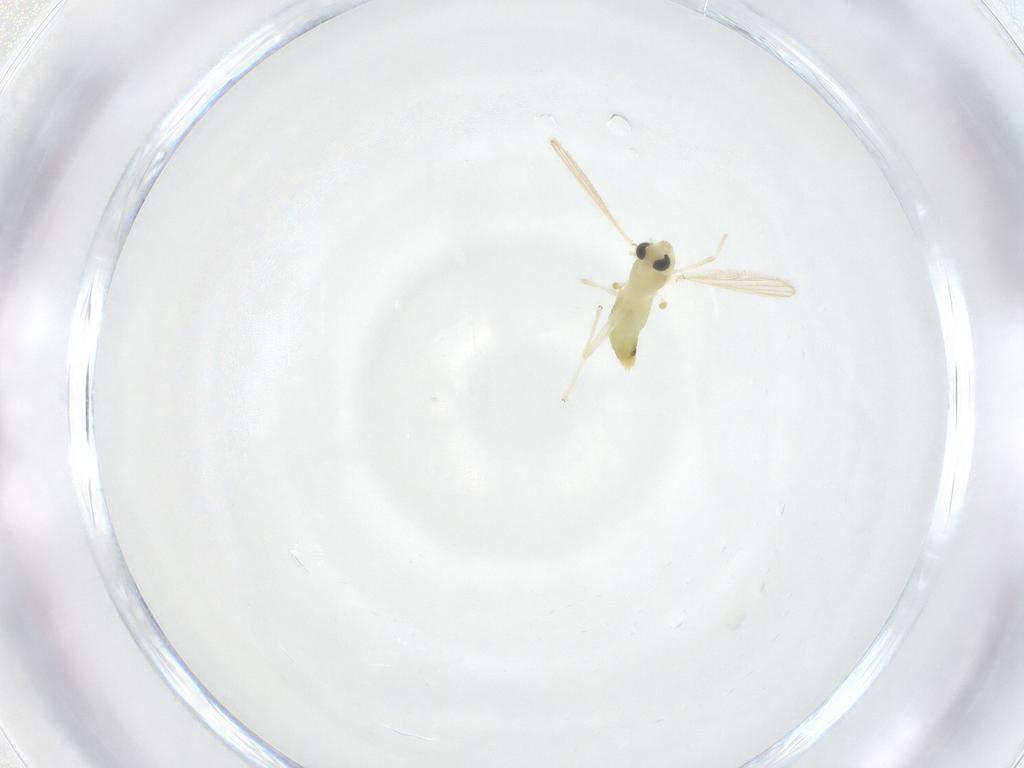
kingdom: Animalia
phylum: Arthropoda
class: Insecta
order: Diptera
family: Chironomidae
